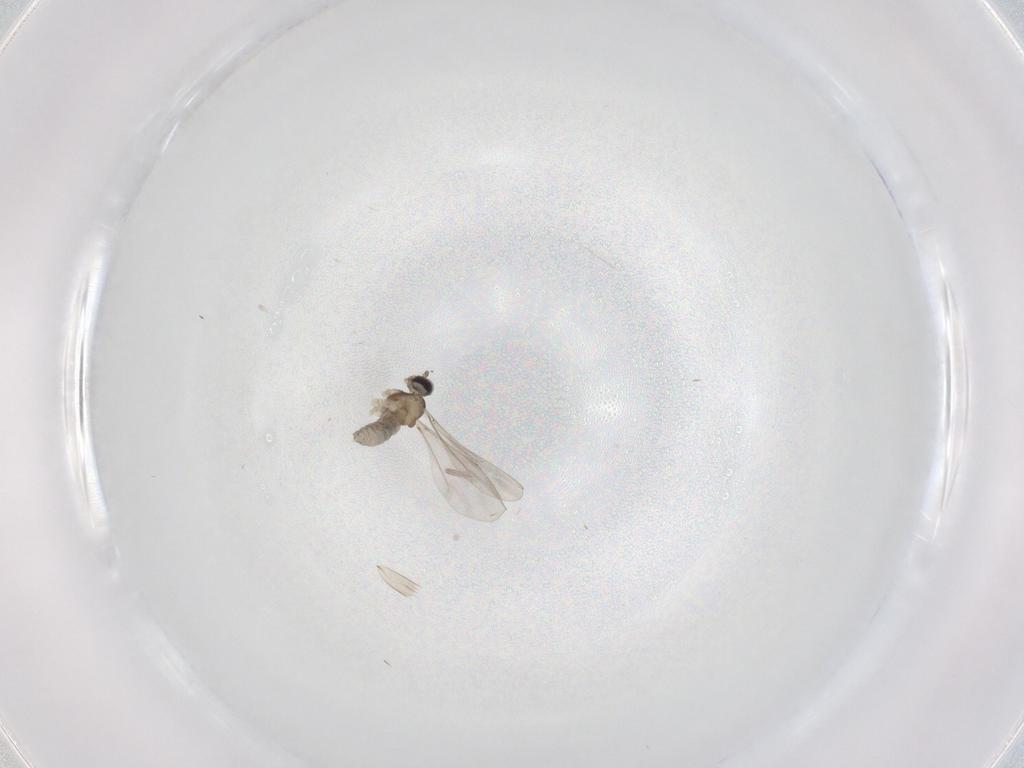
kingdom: Animalia
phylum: Arthropoda
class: Insecta
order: Diptera
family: Cecidomyiidae
